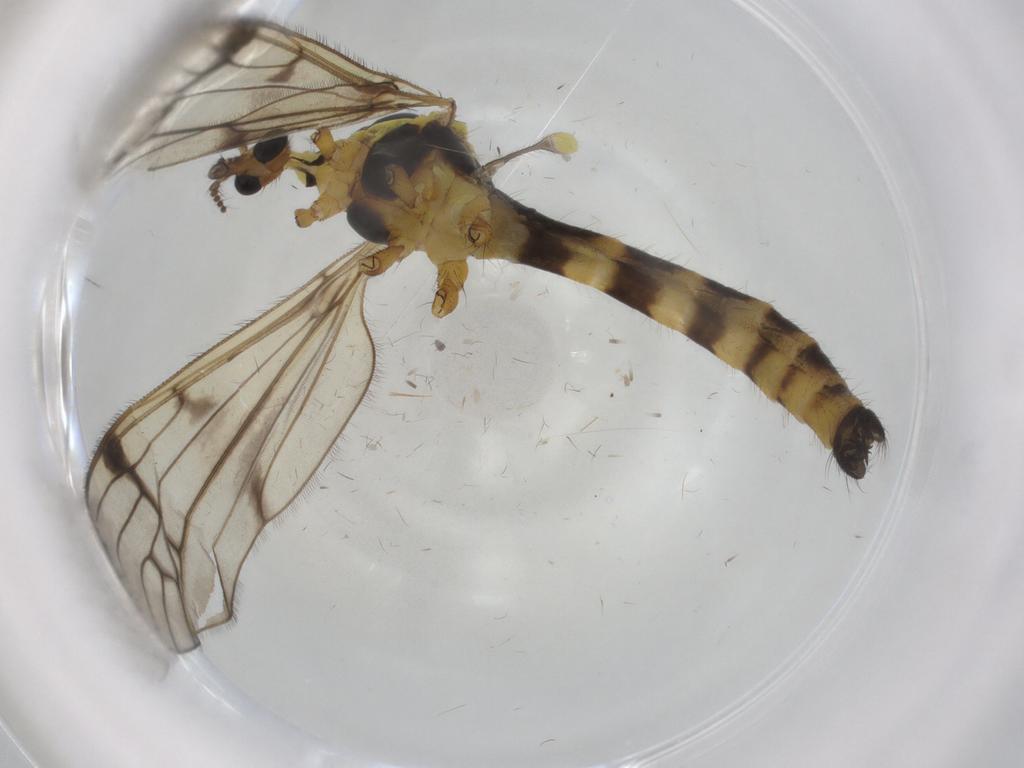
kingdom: Animalia
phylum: Arthropoda
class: Insecta
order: Diptera
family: Limoniidae
